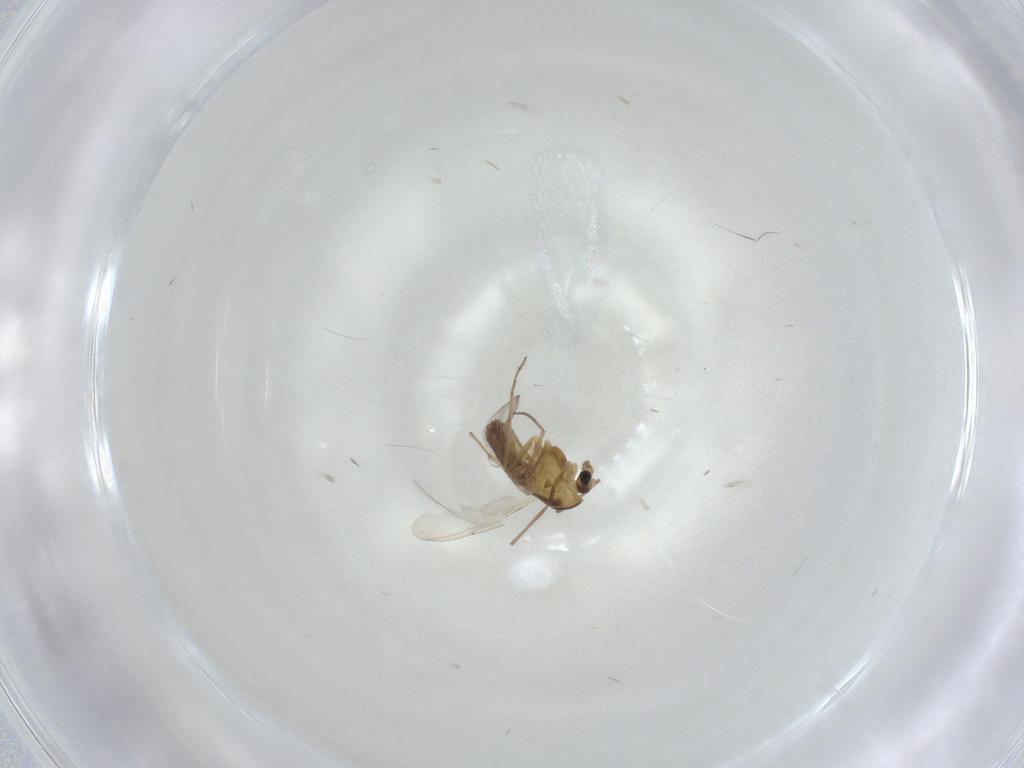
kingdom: Animalia
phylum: Arthropoda
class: Insecta
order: Diptera
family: Chironomidae
